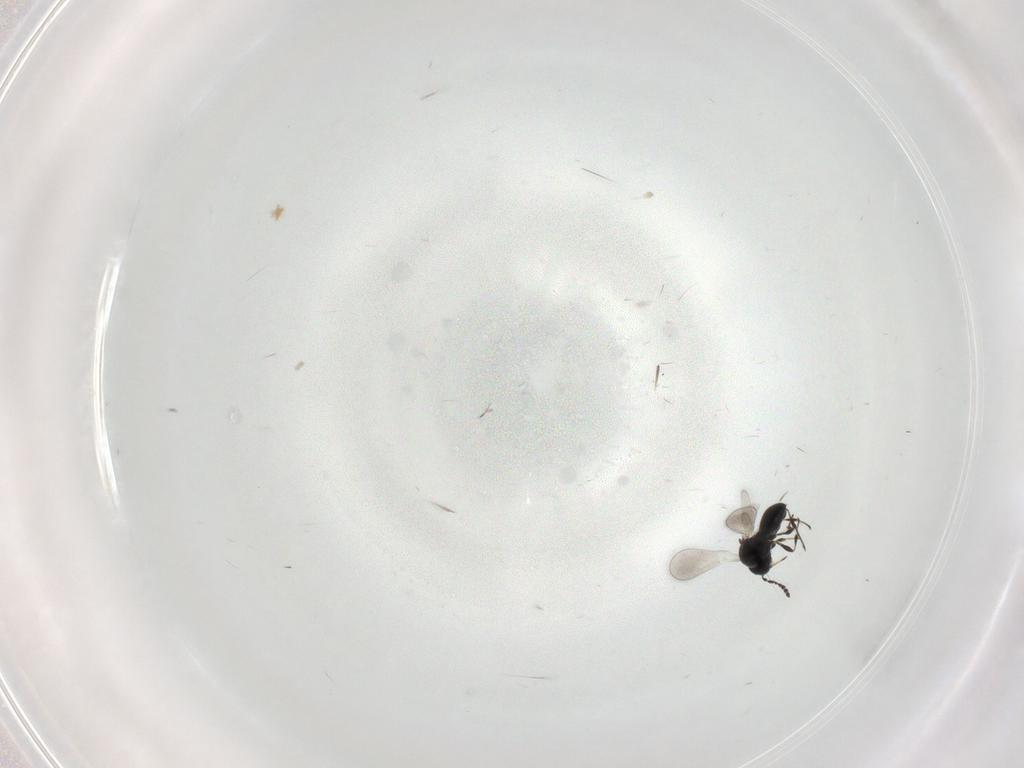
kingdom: Animalia
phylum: Arthropoda
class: Insecta
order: Hymenoptera
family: Platygastridae
